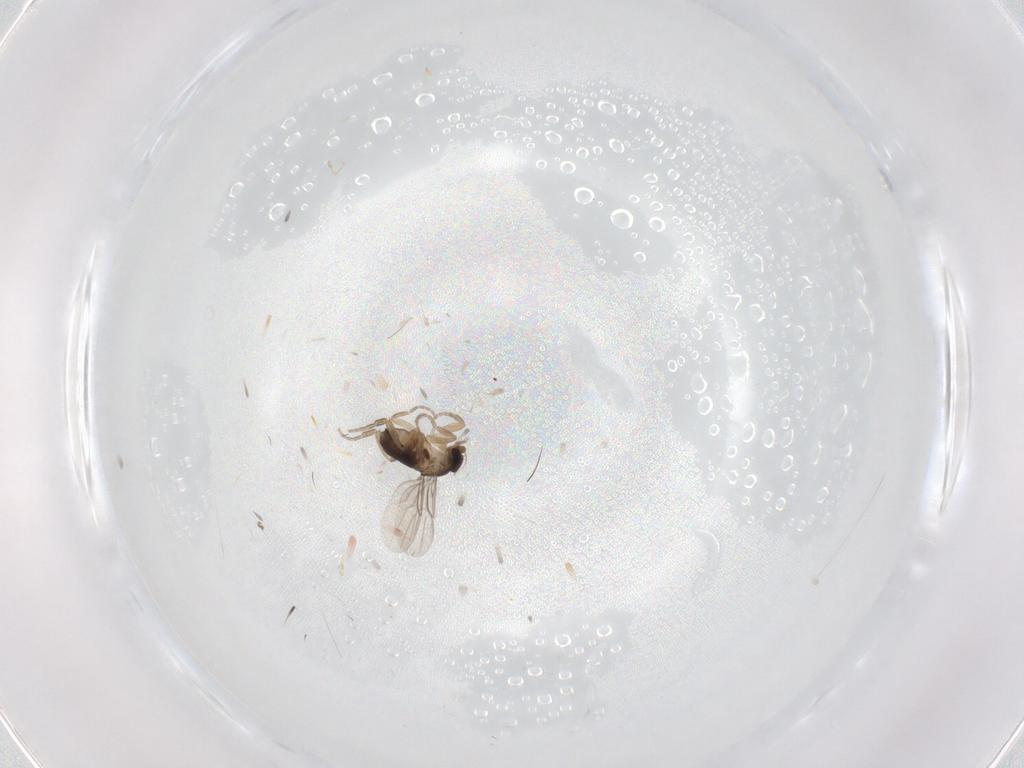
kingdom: Animalia
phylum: Arthropoda
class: Insecta
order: Diptera
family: Phoridae
